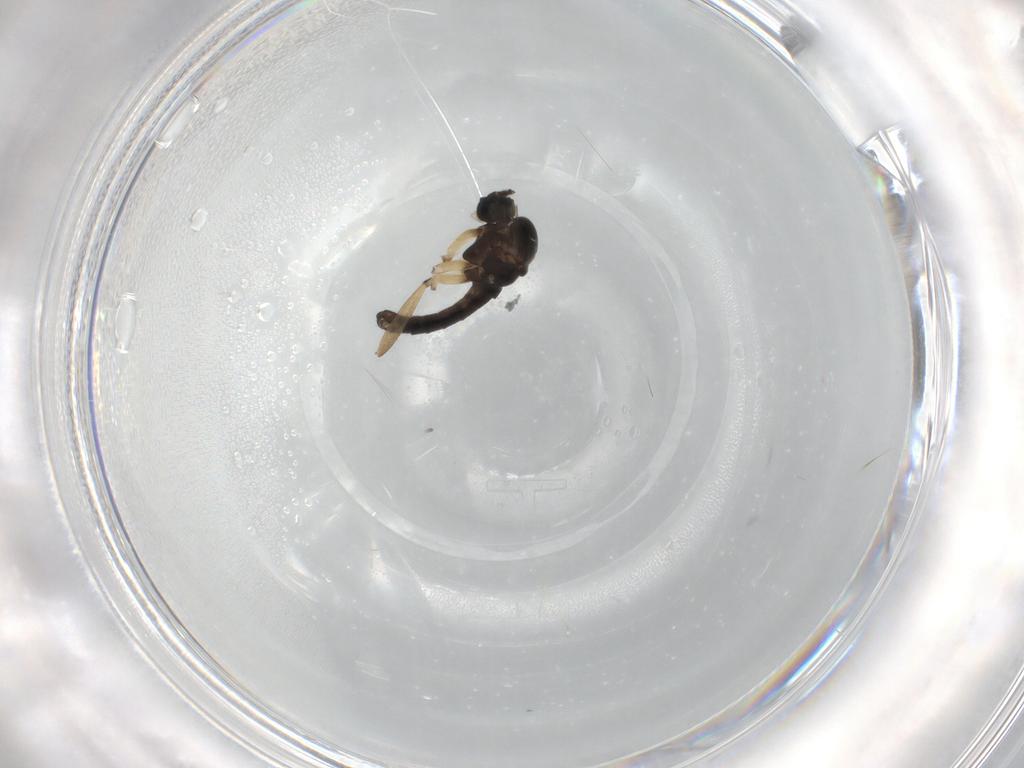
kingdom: Animalia
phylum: Arthropoda
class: Insecta
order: Diptera
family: Sciaridae
